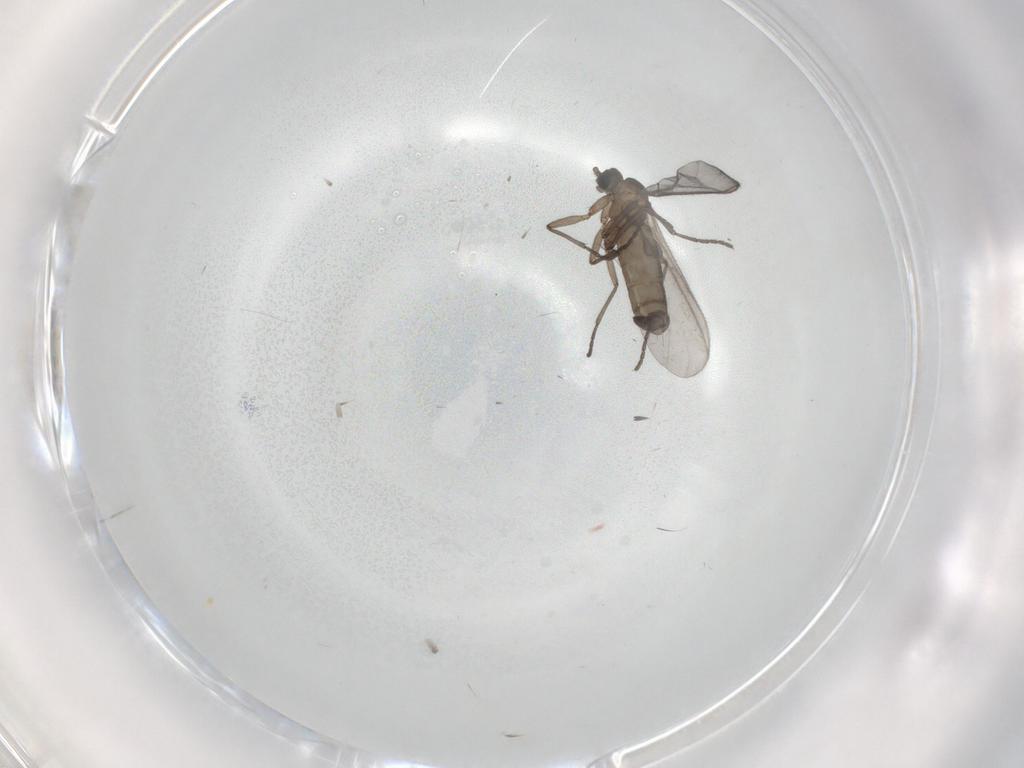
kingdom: Animalia
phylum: Arthropoda
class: Insecta
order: Diptera
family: Sciaridae
